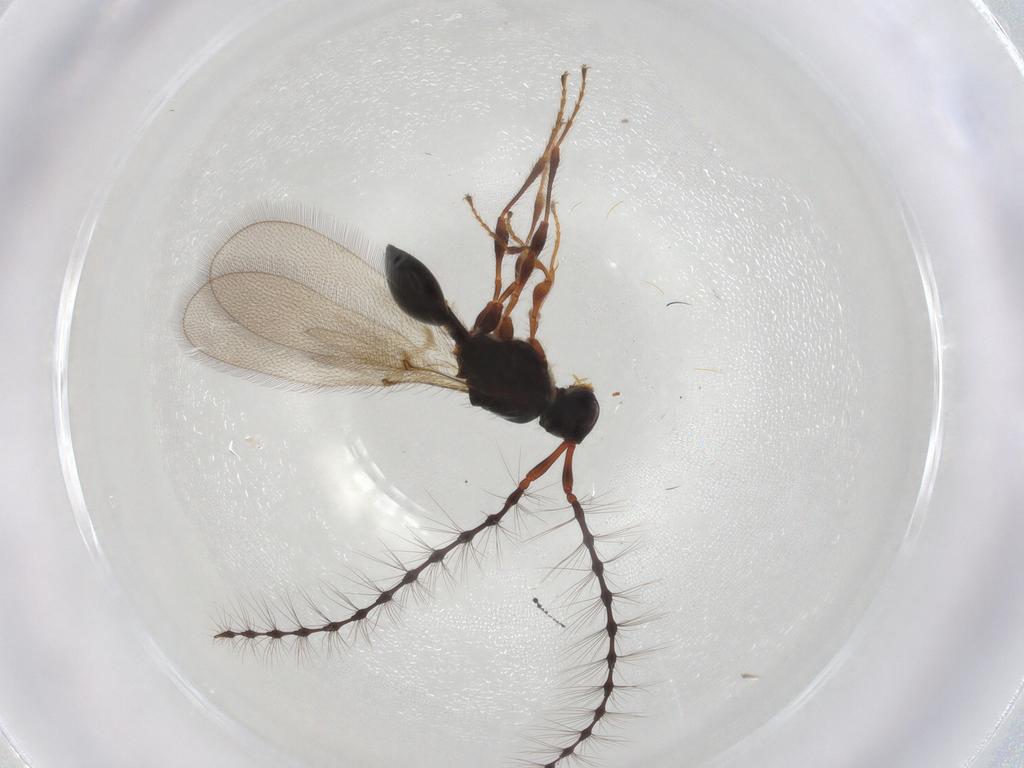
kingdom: Animalia
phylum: Arthropoda
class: Insecta
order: Hymenoptera
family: Diapriidae
